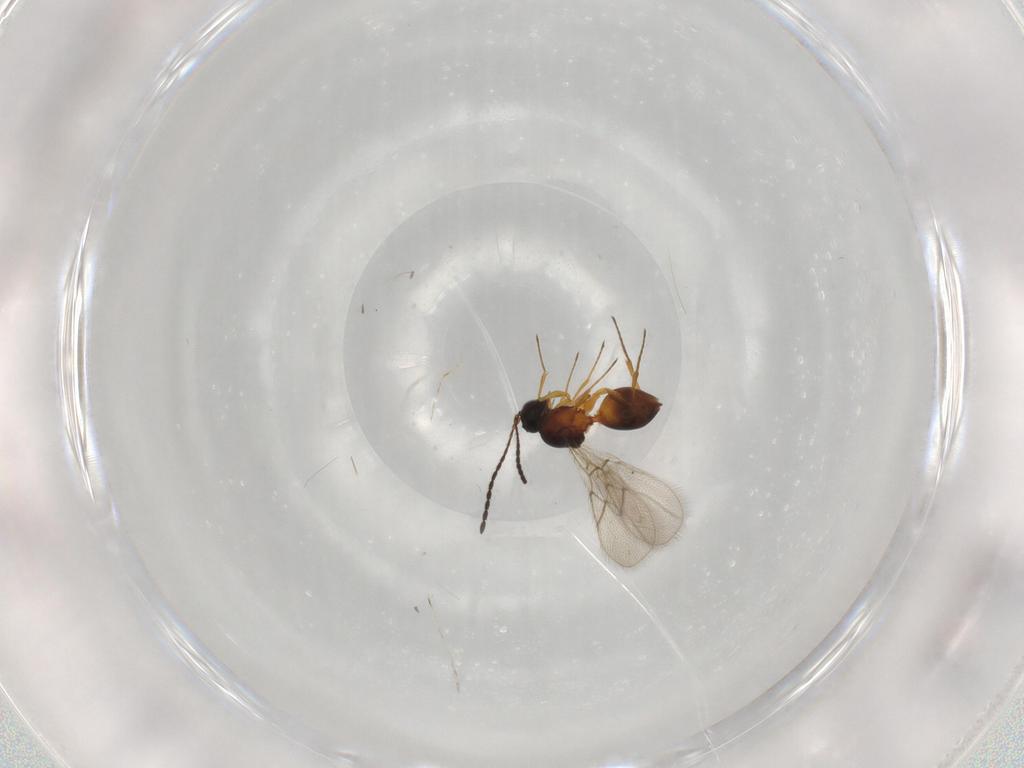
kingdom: Animalia
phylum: Arthropoda
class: Insecta
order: Hymenoptera
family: Figitidae
